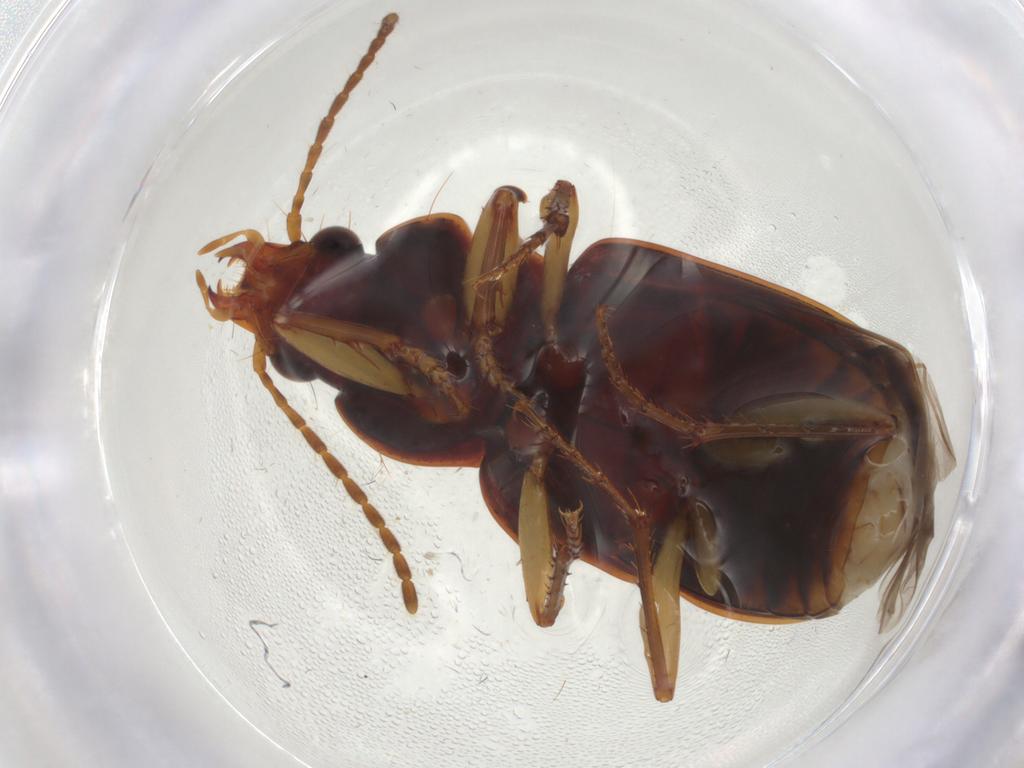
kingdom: Animalia
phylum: Arthropoda
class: Insecta
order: Coleoptera
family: Carabidae
